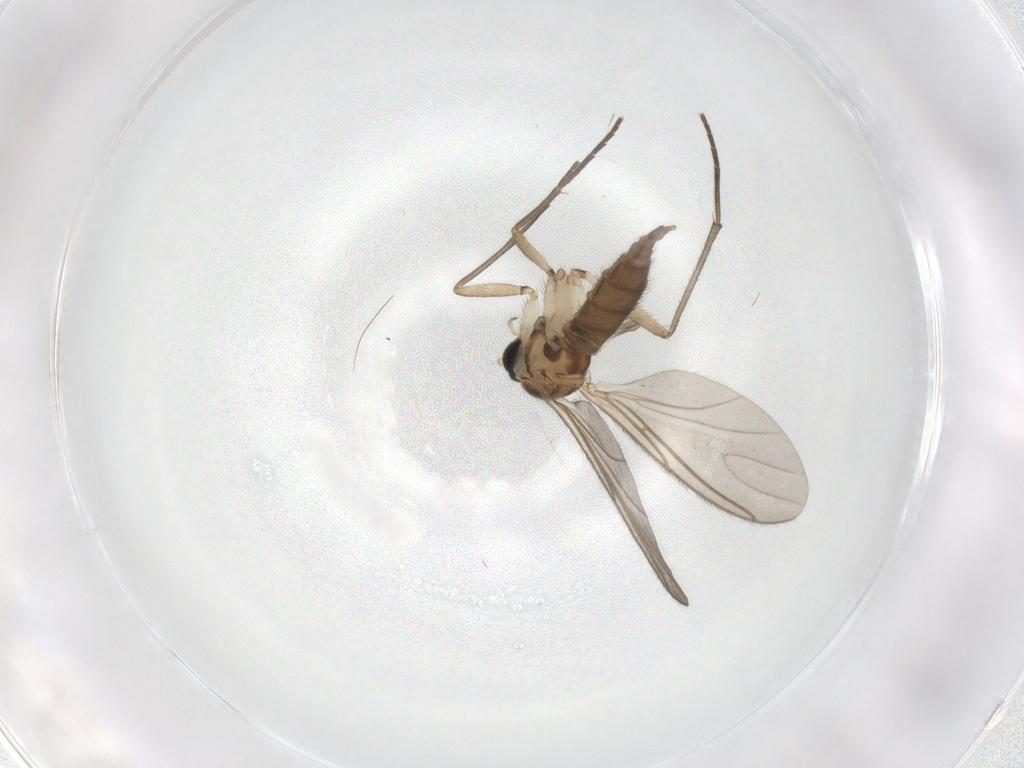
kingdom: Animalia
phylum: Arthropoda
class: Insecta
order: Diptera
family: Sciaridae
